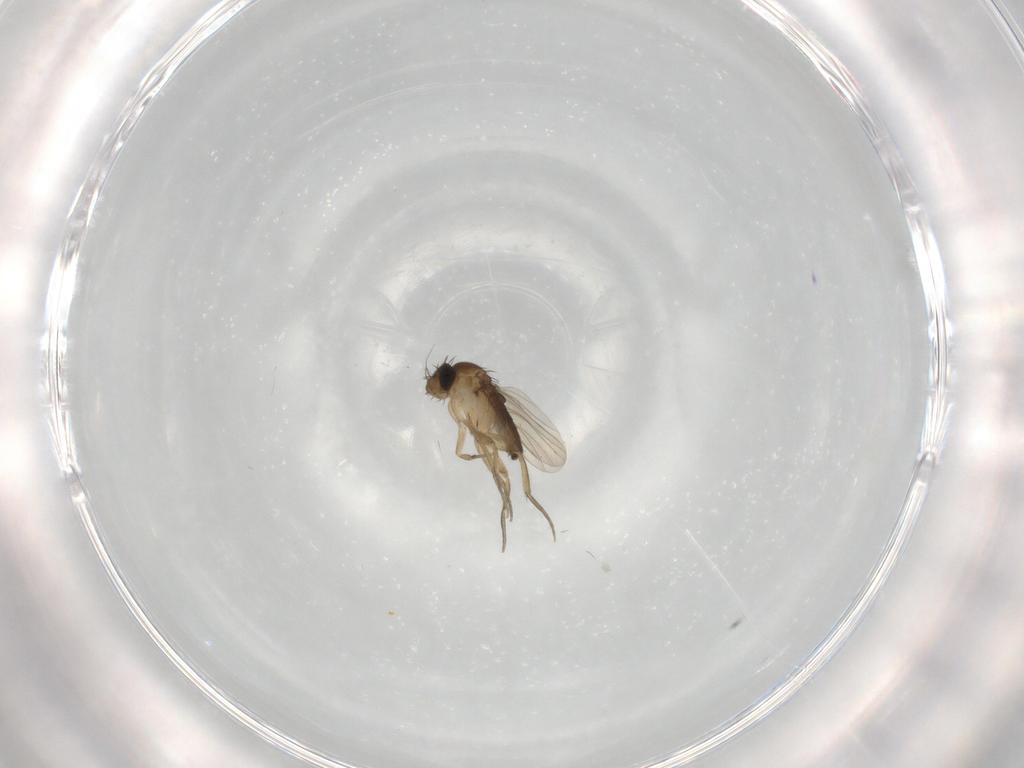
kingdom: Animalia
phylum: Arthropoda
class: Insecta
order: Diptera
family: Phoridae
